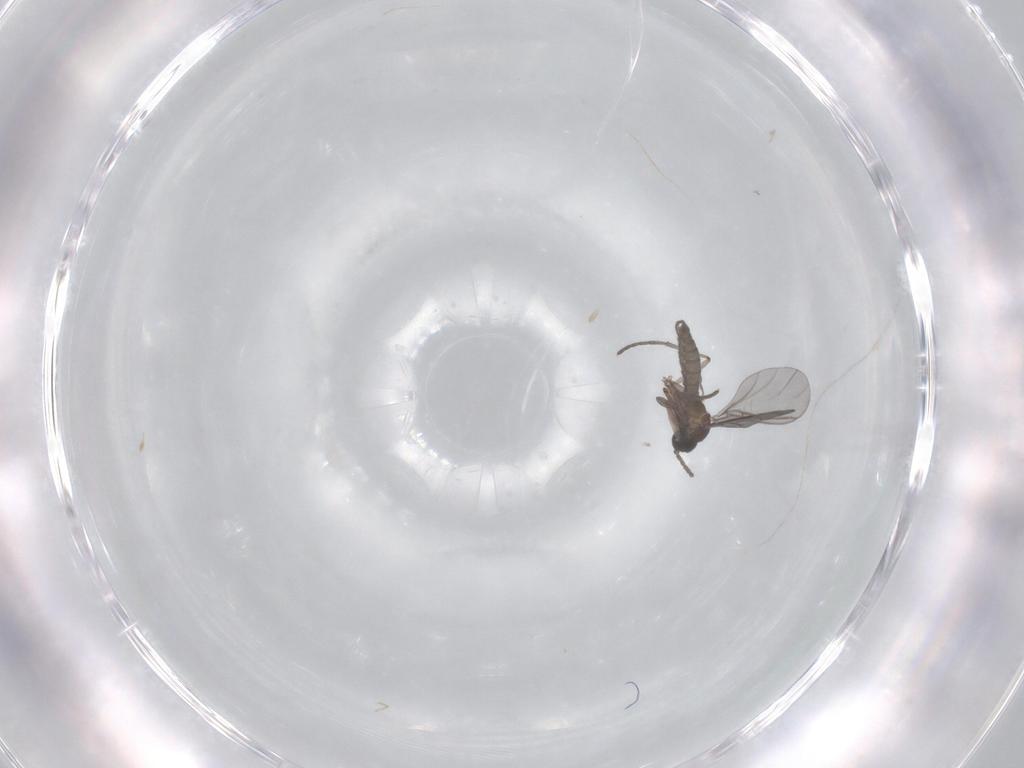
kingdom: Animalia
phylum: Arthropoda
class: Insecta
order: Diptera
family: Sciaridae
